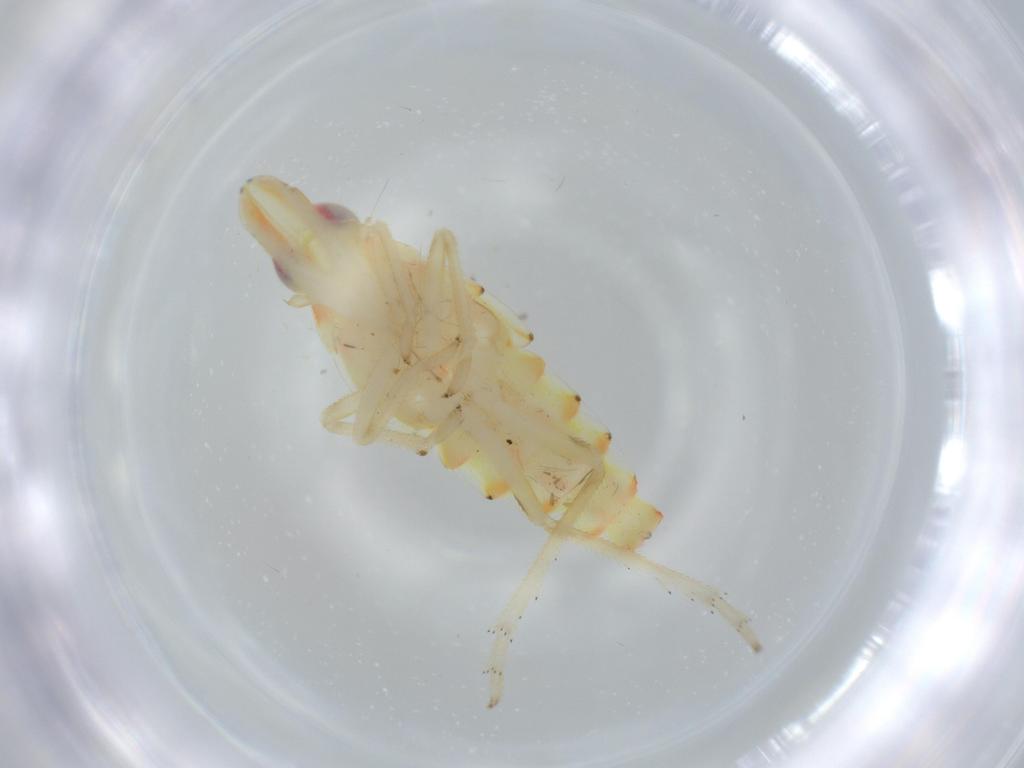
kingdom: Animalia
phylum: Arthropoda
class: Insecta
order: Hemiptera
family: Tropiduchidae
